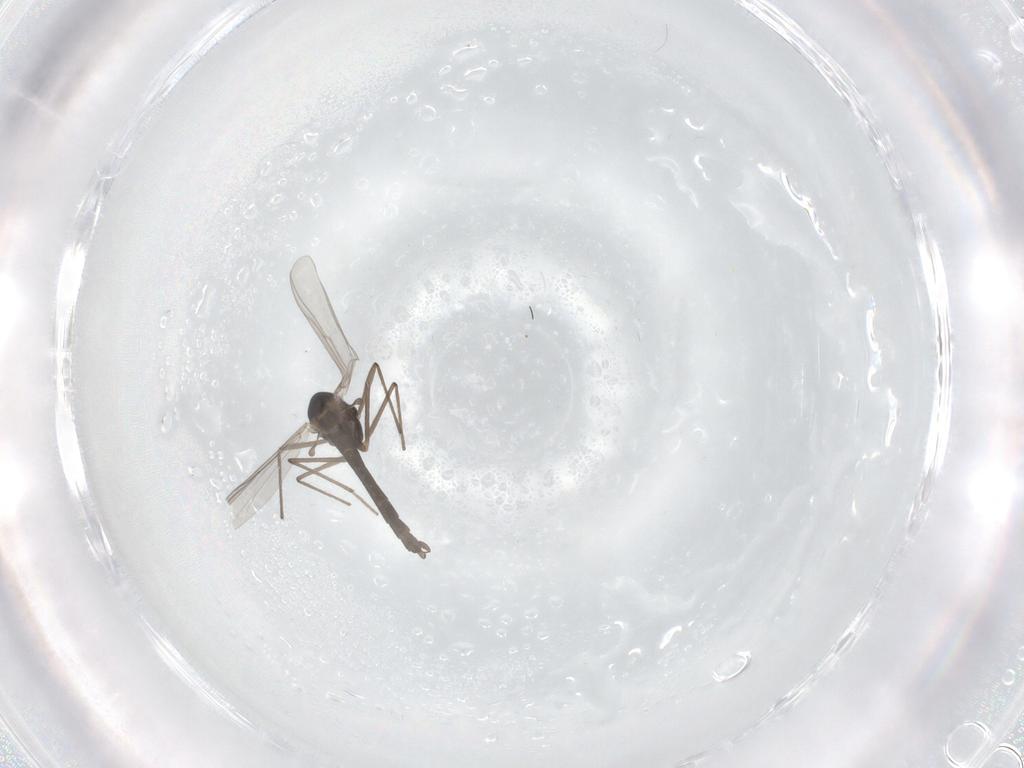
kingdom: Animalia
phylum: Arthropoda
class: Insecta
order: Diptera
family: Chironomidae
